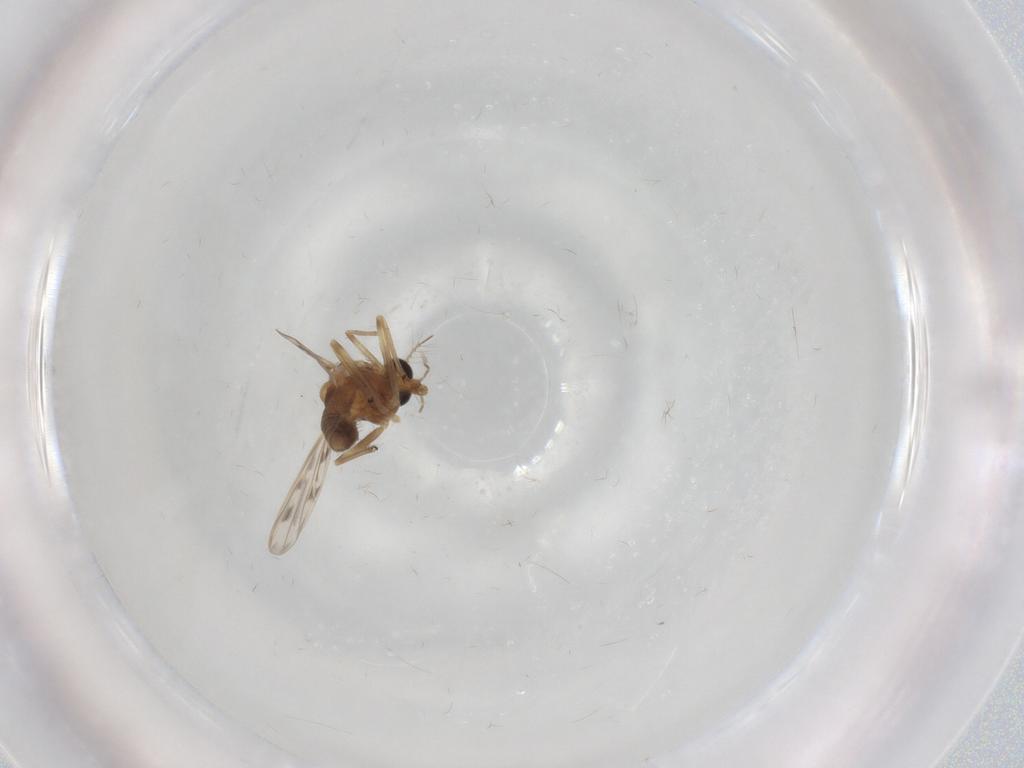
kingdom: Animalia
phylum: Arthropoda
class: Insecta
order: Diptera
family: Chironomidae
